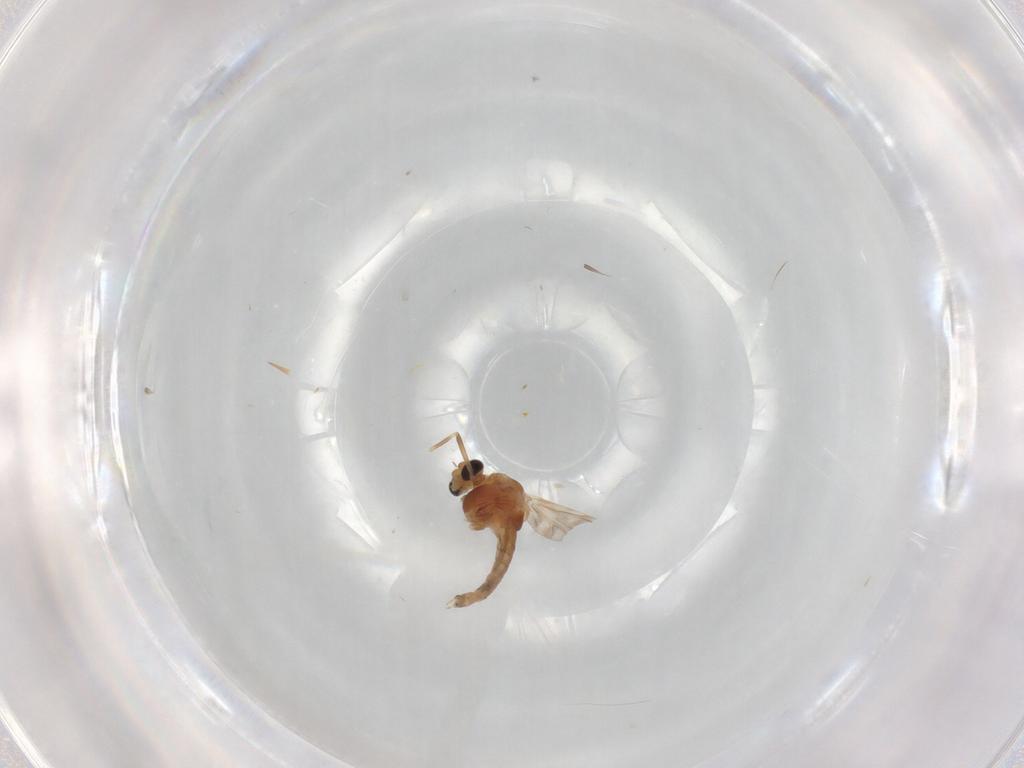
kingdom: Animalia
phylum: Arthropoda
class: Insecta
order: Diptera
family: Chironomidae
